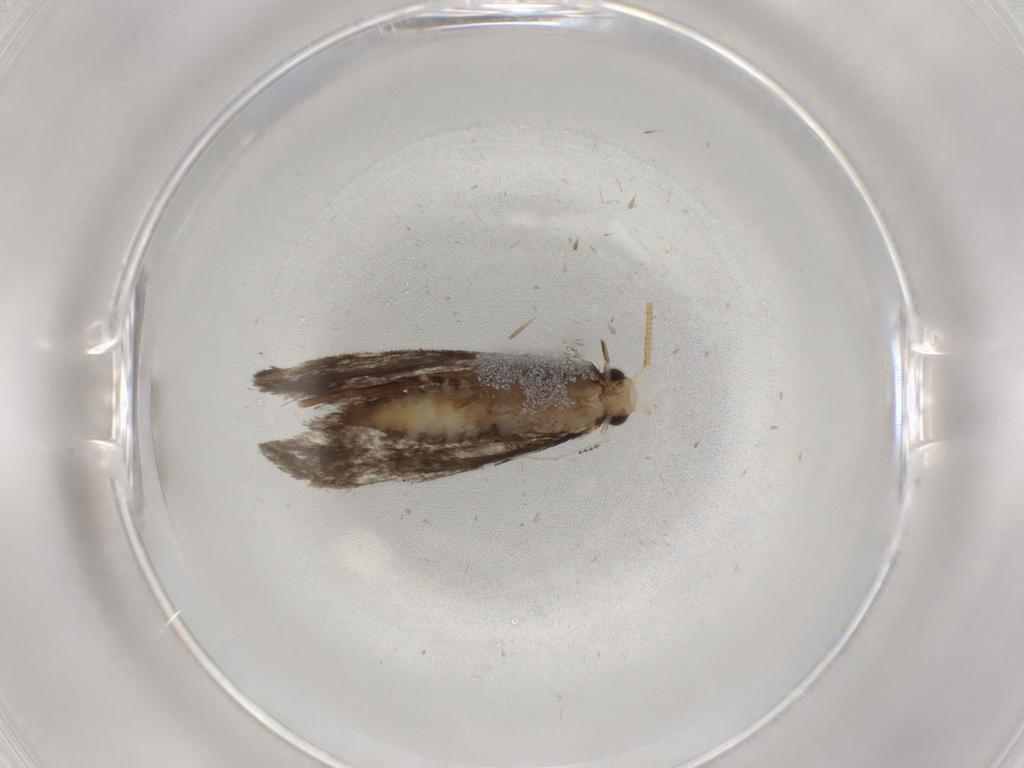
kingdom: Animalia
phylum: Arthropoda
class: Insecta
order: Lepidoptera
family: Tineidae
